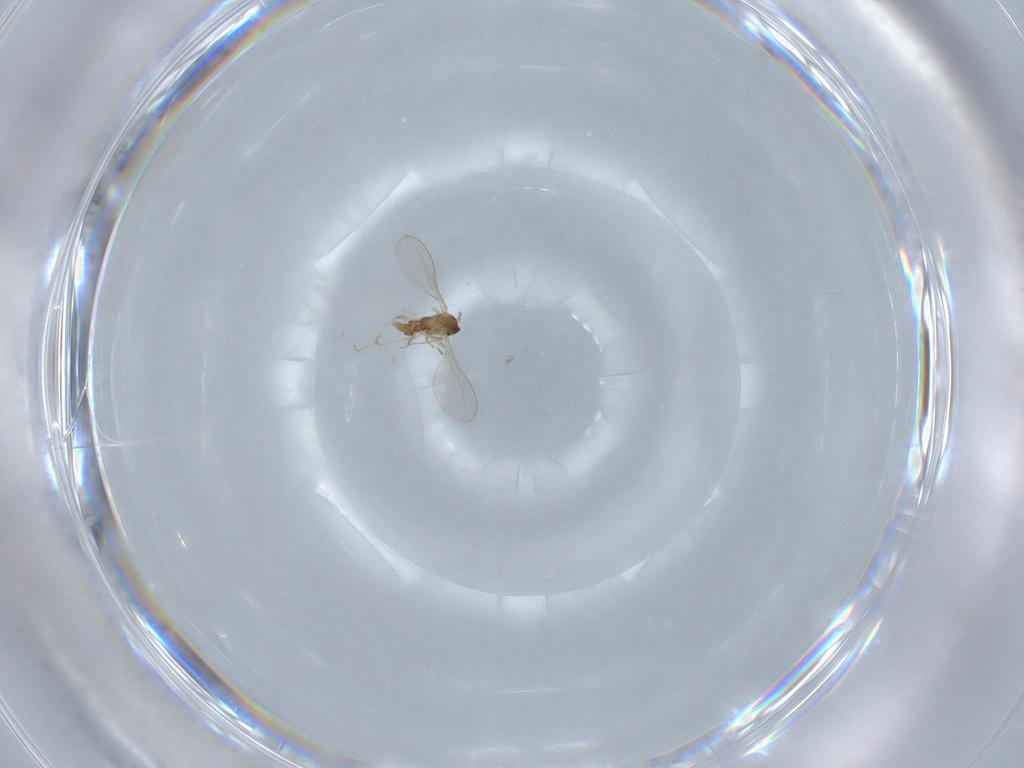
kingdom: Animalia
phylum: Arthropoda
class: Insecta
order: Diptera
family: Cecidomyiidae
